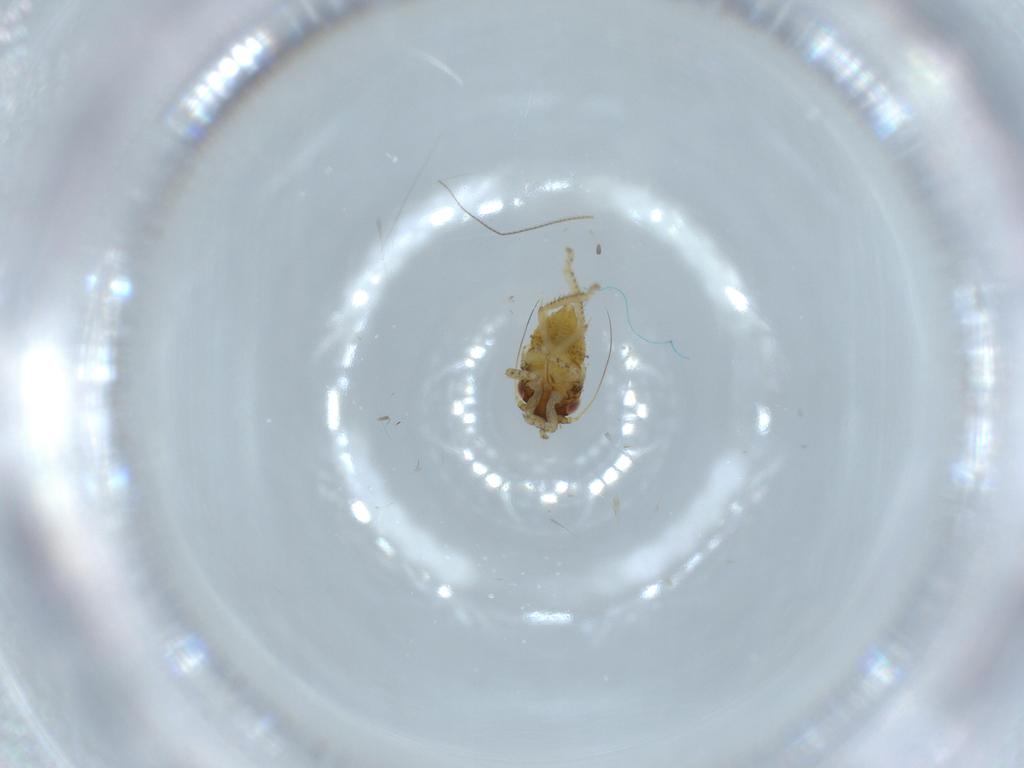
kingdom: Animalia
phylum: Arthropoda
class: Insecta
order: Hemiptera
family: Cicadellidae
